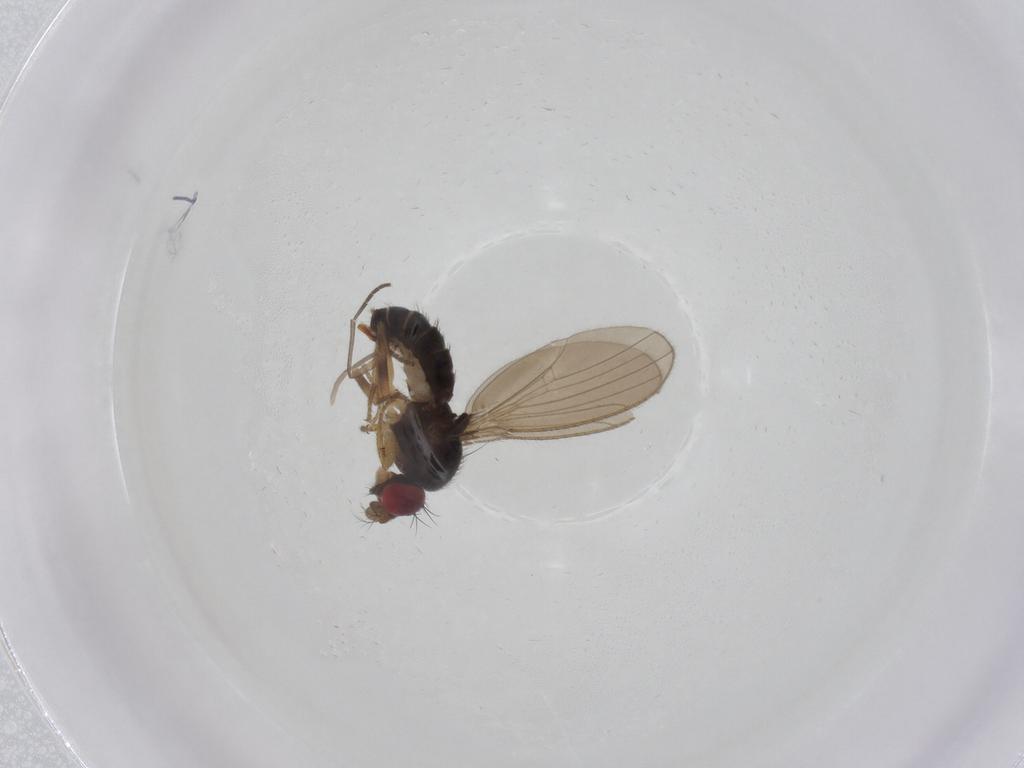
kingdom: Animalia
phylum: Arthropoda
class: Insecta
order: Diptera
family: Drosophilidae
